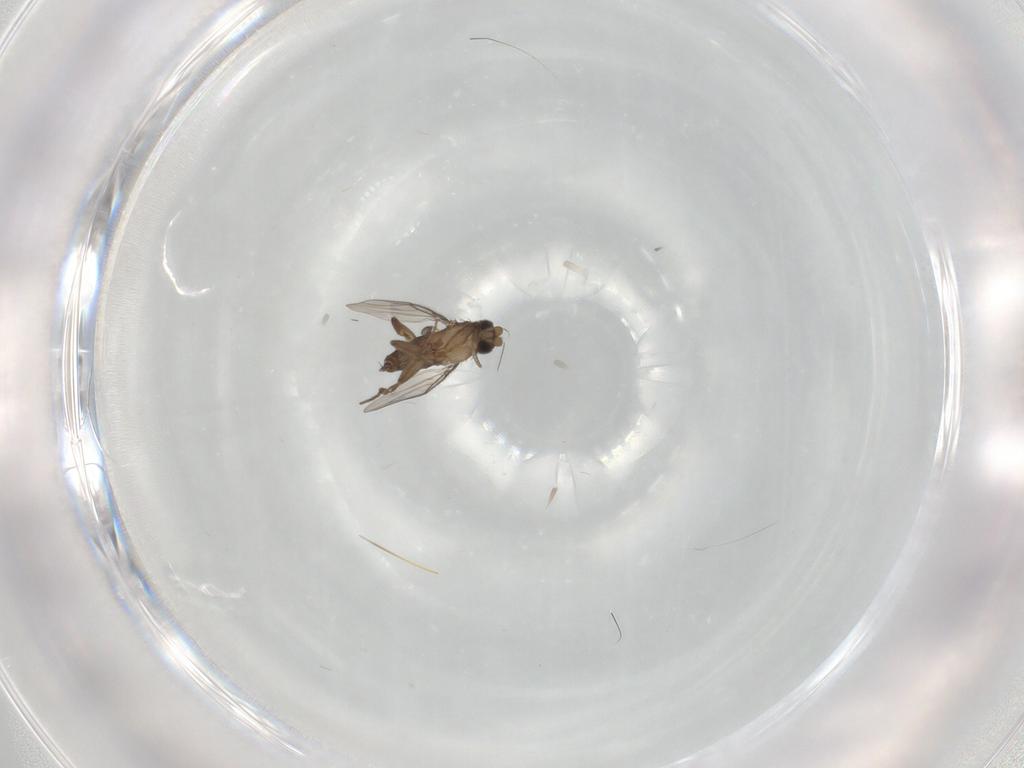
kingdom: Animalia
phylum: Arthropoda
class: Insecta
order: Diptera
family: Phoridae
